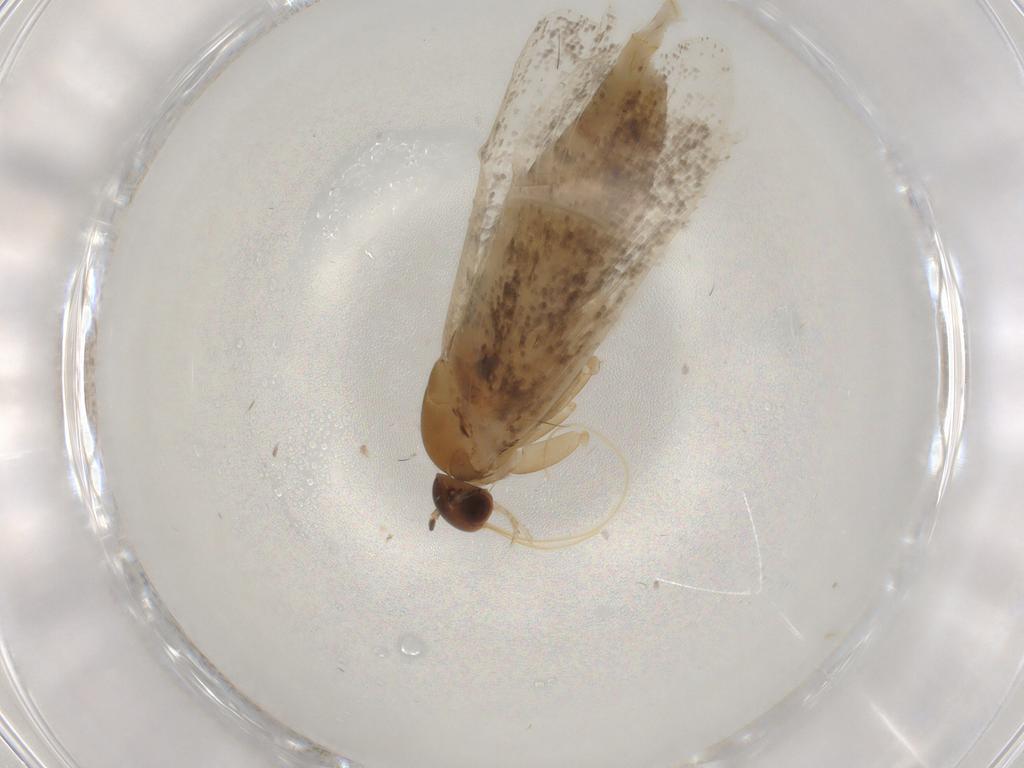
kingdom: Animalia
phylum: Arthropoda
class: Insecta
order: Lepidoptera
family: Glyphipterigidae
